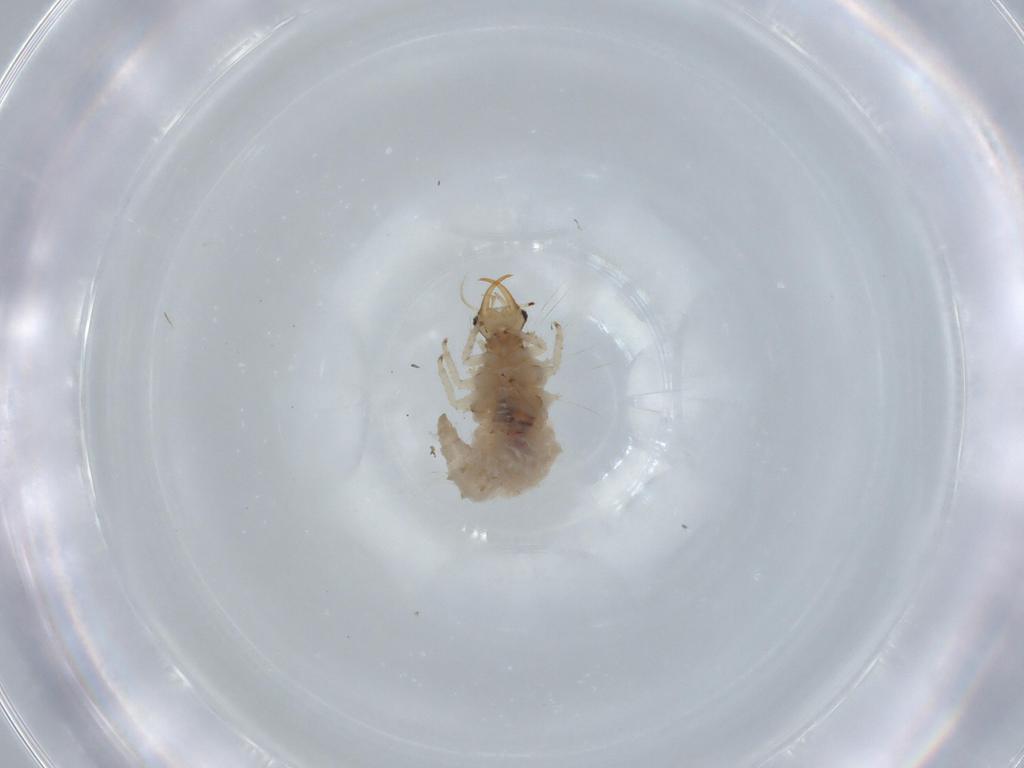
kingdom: Animalia
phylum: Arthropoda
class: Insecta
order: Neuroptera
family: Chrysopidae
